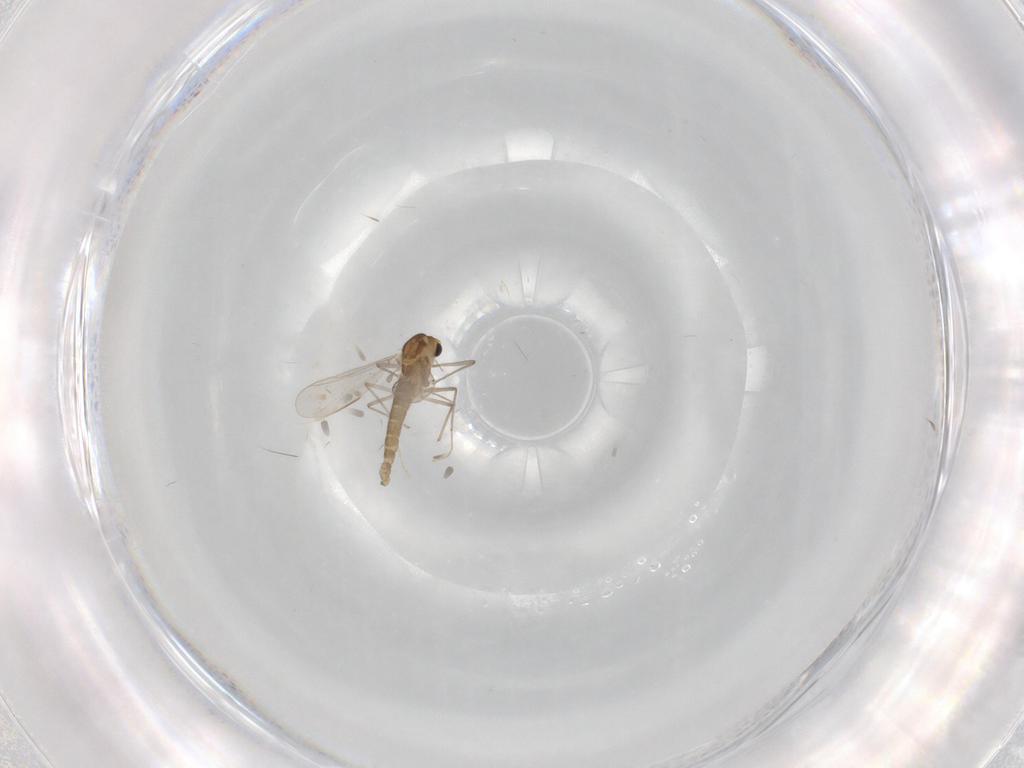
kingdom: Animalia
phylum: Arthropoda
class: Insecta
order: Diptera
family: Chironomidae
